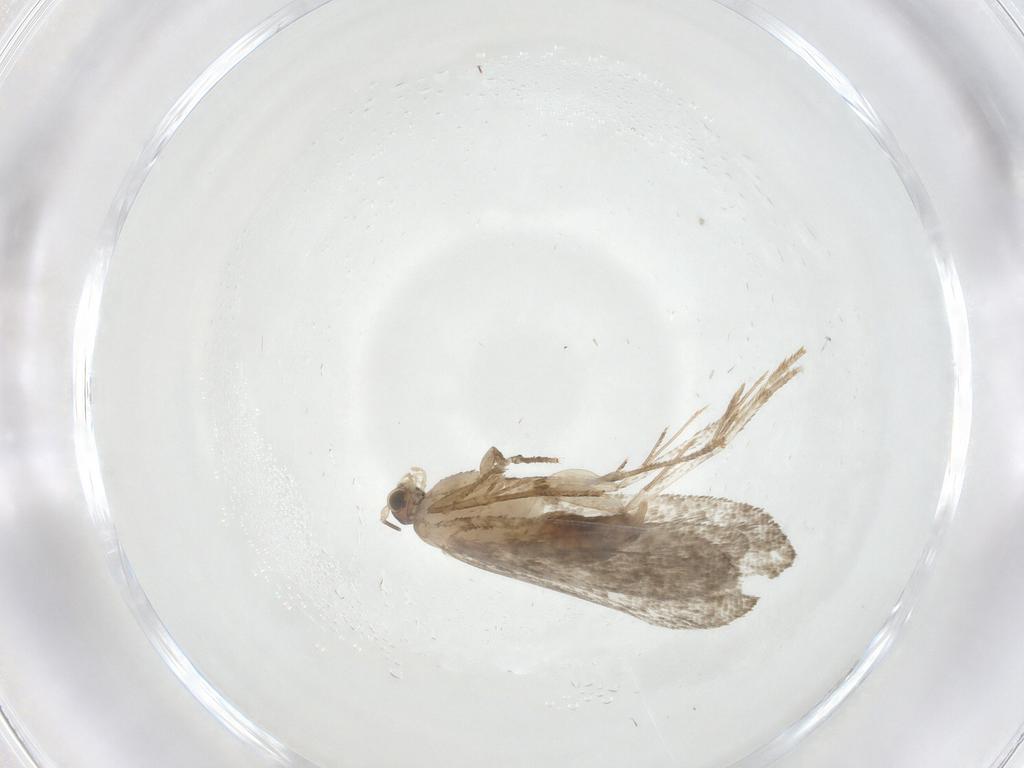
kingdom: Animalia
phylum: Arthropoda
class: Insecta
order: Lepidoptera
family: Tineidae
